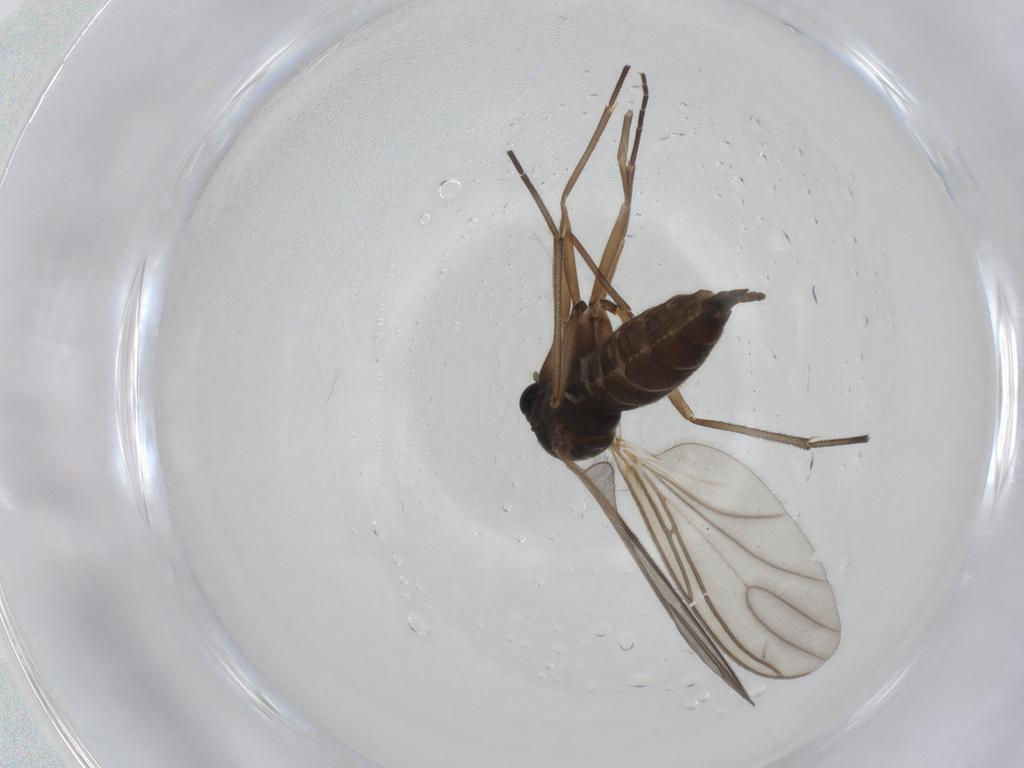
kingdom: Animalia
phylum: Arthropoda
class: Insecta
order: Diptera
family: Sciaridae
